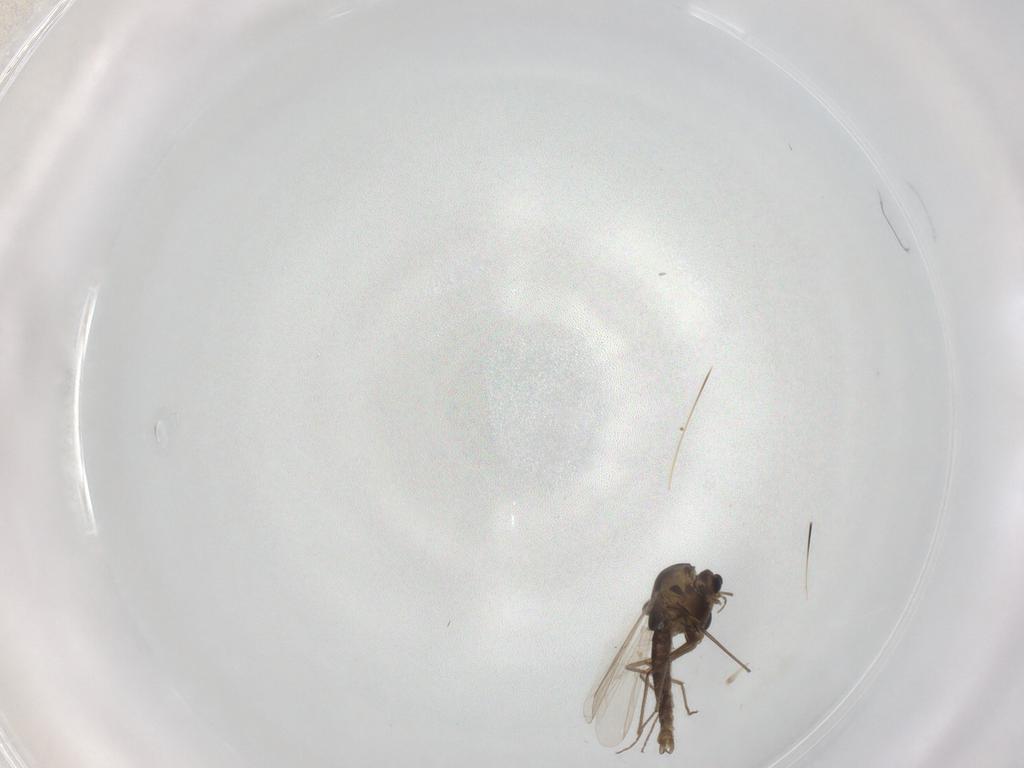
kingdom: Animalia
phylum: Arthropoda
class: Insecta
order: Diptera
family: Chironomidae
